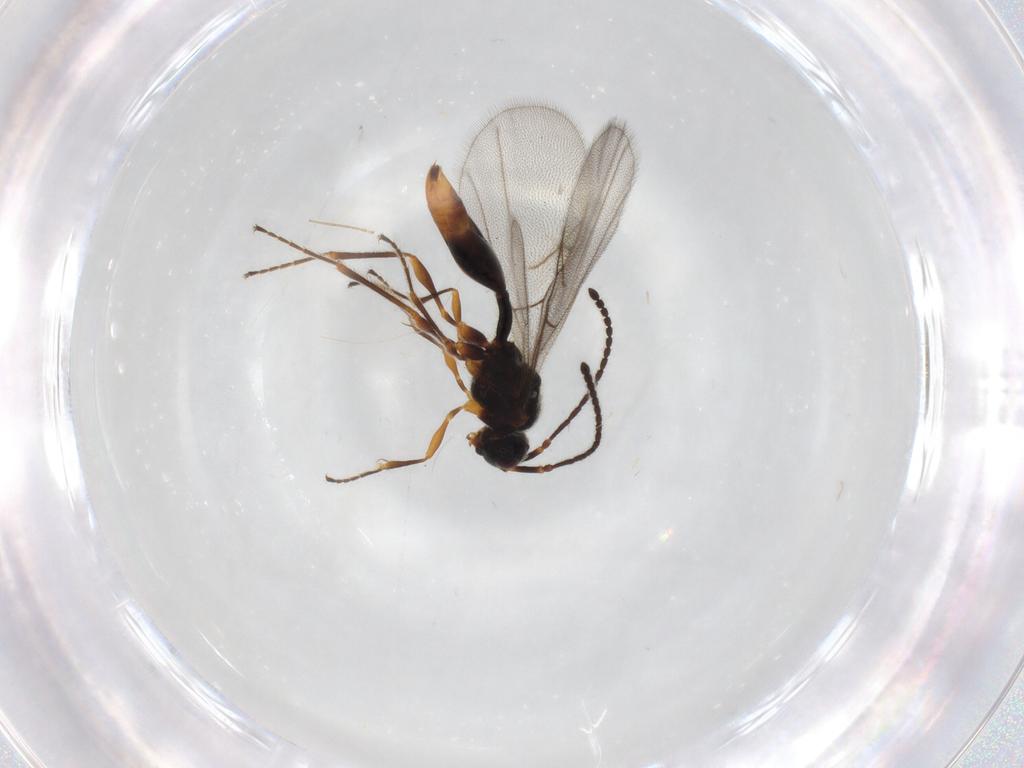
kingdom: Animalia
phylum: Arthropoda
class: Insecta
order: Hymenoptera
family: Diapriidae
